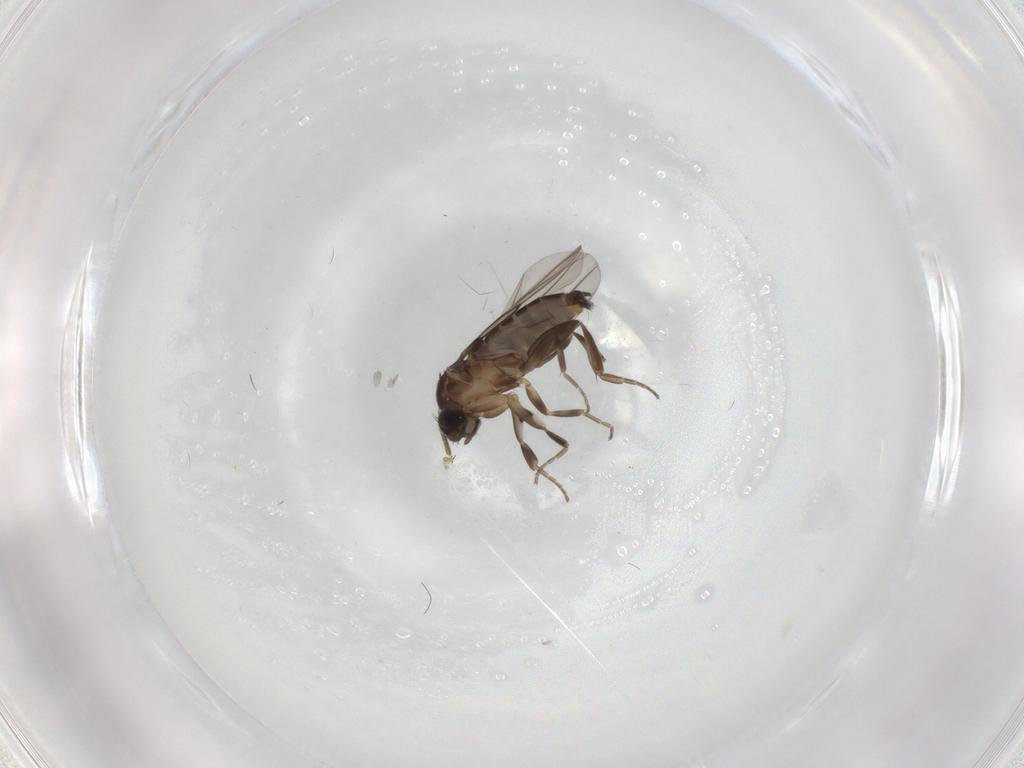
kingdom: Animalia
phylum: Arthropoda
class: Insecta
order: Diptera
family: Phoridae
